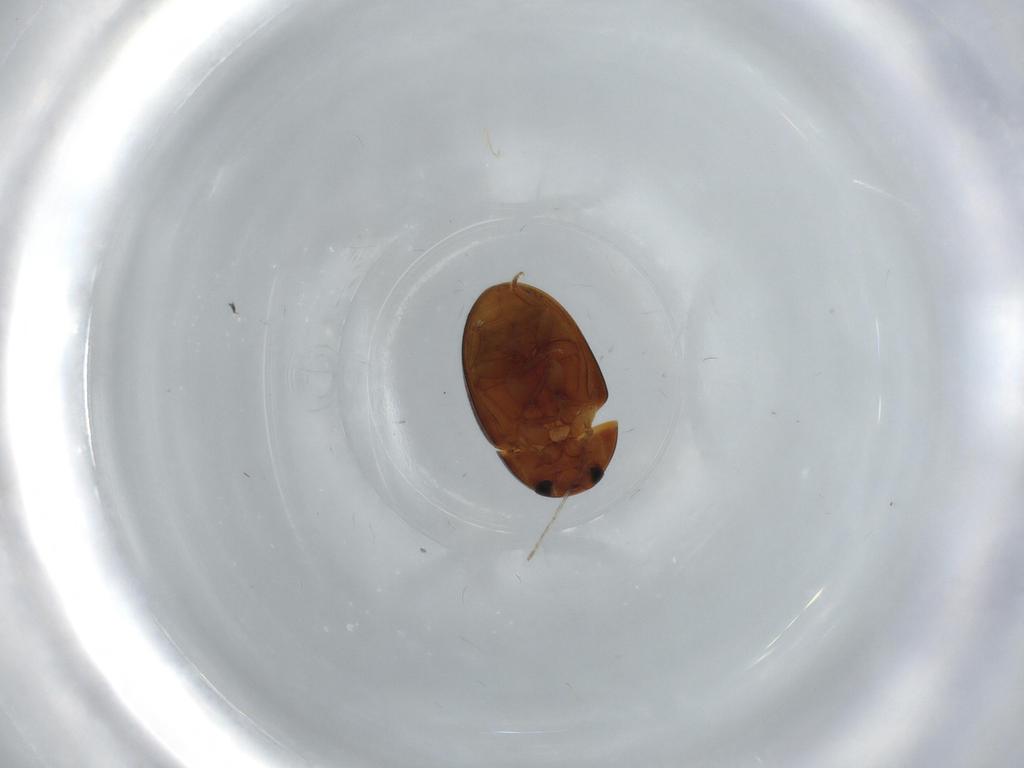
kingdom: Animalia
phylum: Arthropoda
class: Insecta
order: Coleoptera
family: Phalacridae
